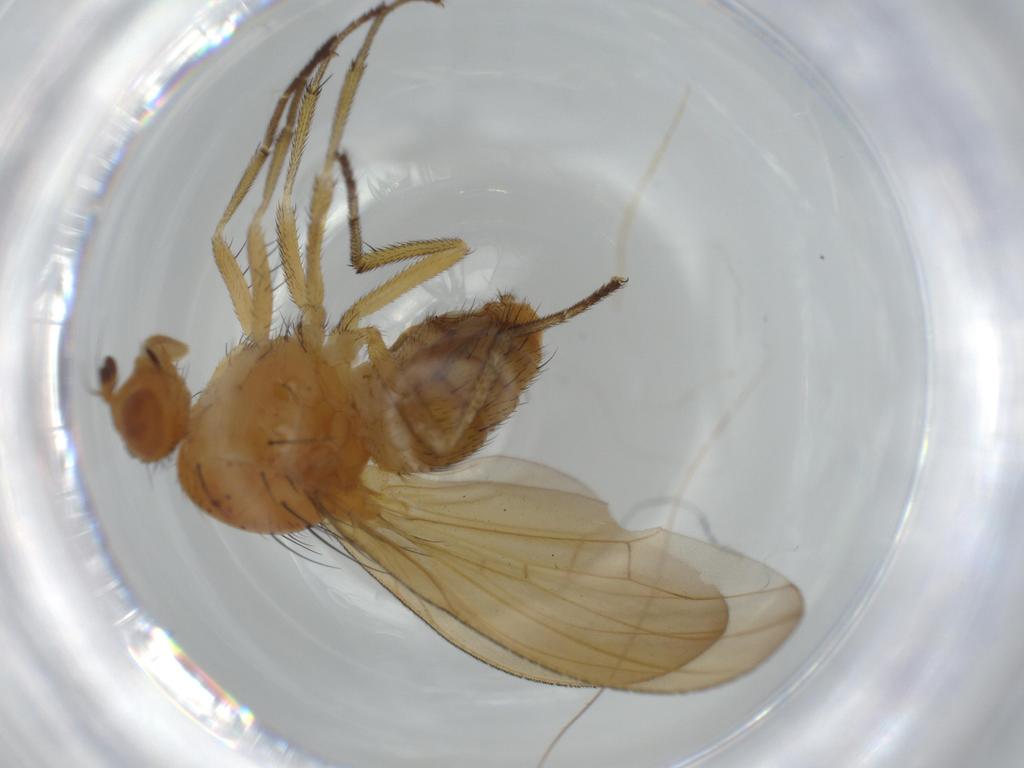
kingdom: Animalia
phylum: Arthropoda
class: Insecta
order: Diptera
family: Lauxaniidae
